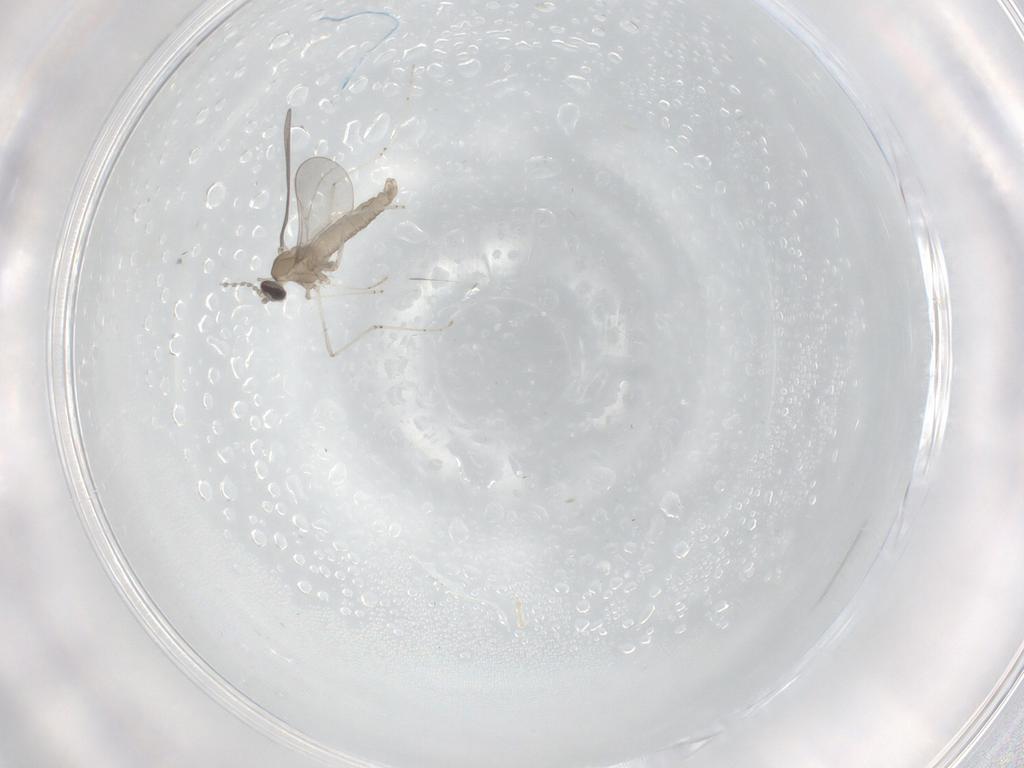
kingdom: Animalia
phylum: Arthropoda
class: Insecta
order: Diptera
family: Ceratopogonidae
